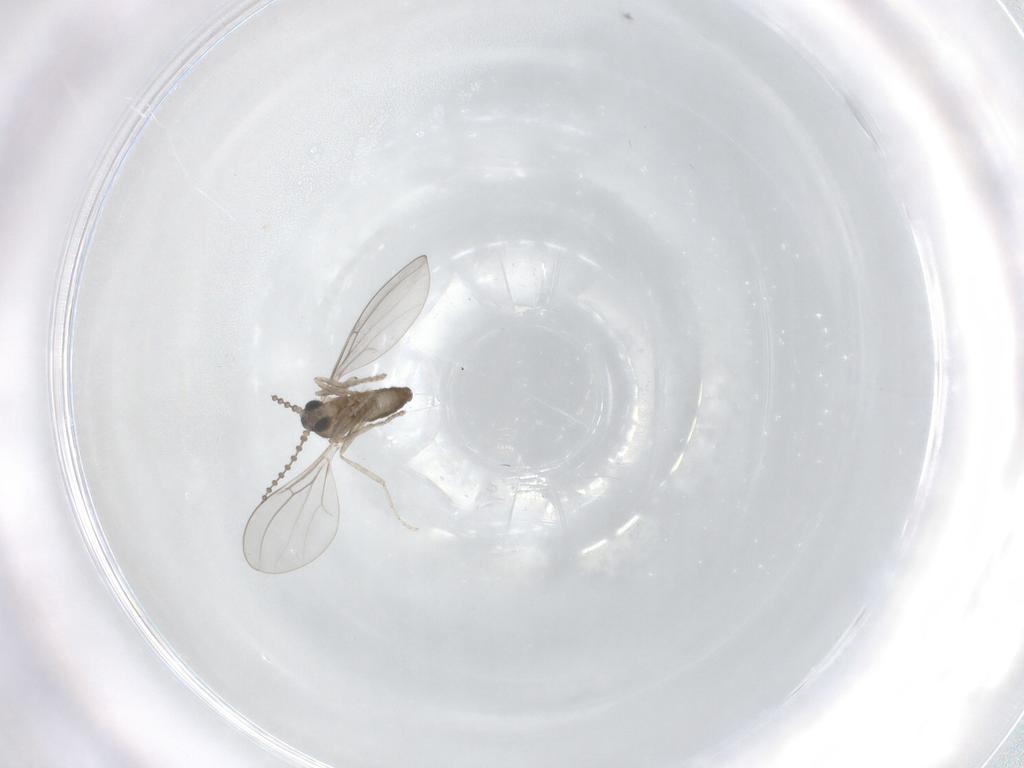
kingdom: Animalia
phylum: Arthropoda
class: Insecta
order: Diptera
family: Cecidomyiidae
